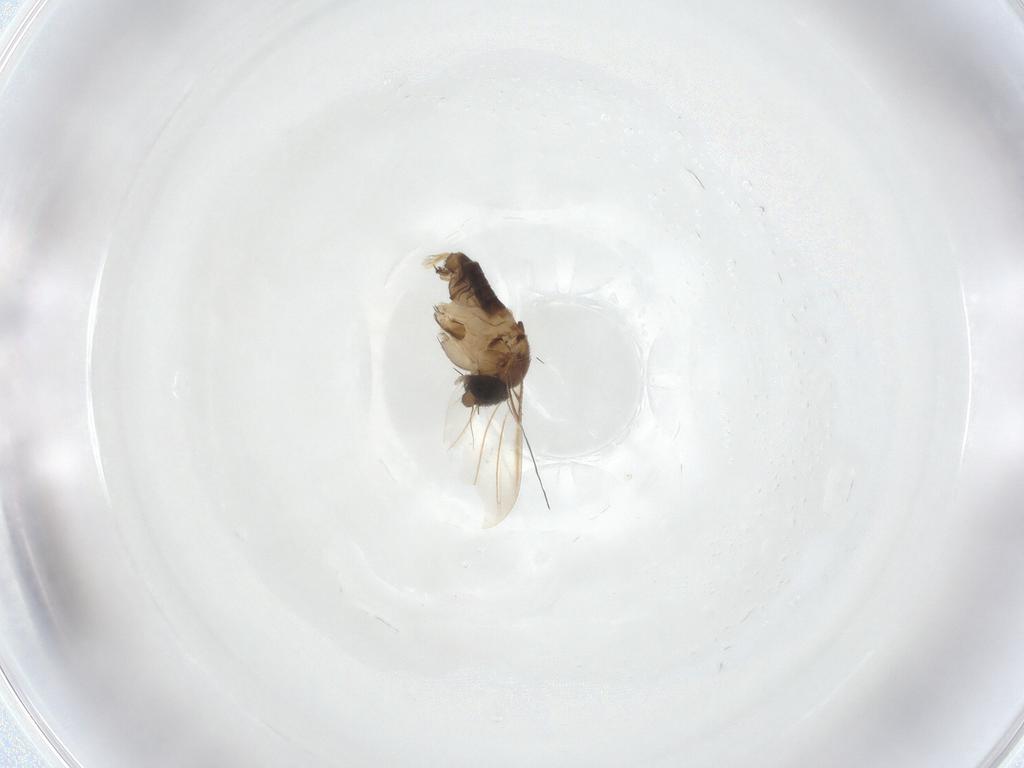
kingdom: Animalia
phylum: Arthropoda
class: Insecta
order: Diptera
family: Phoridae
